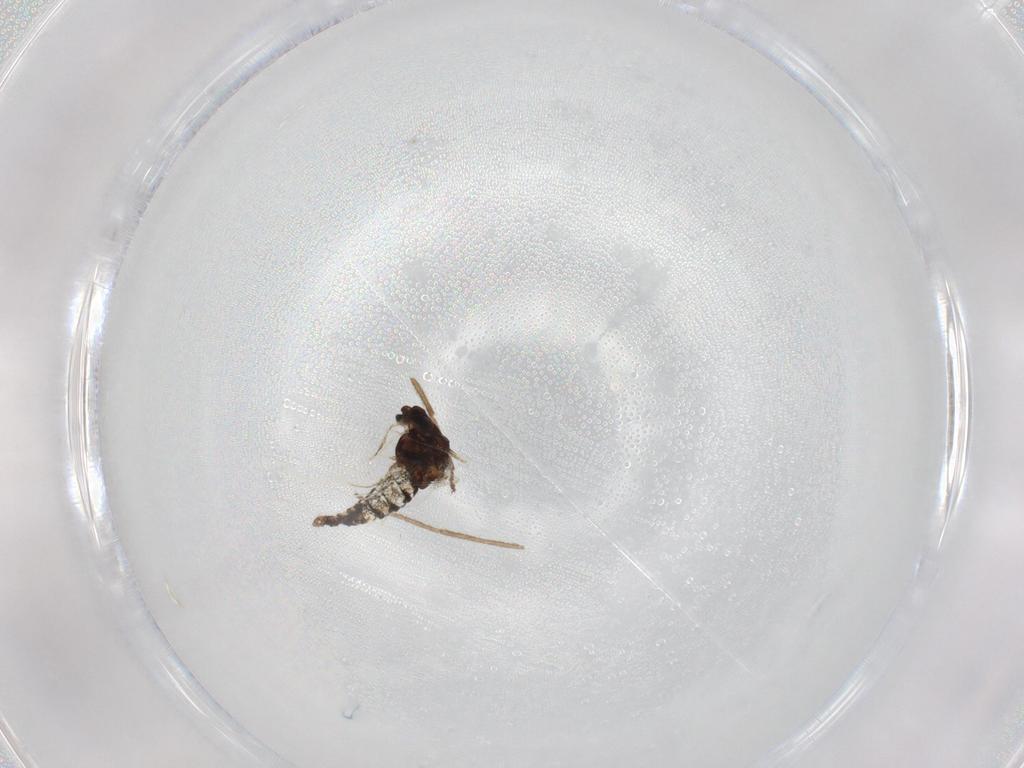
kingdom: Animalia
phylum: Arthropoda
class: Insecta
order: Diptera
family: Chironomidae
